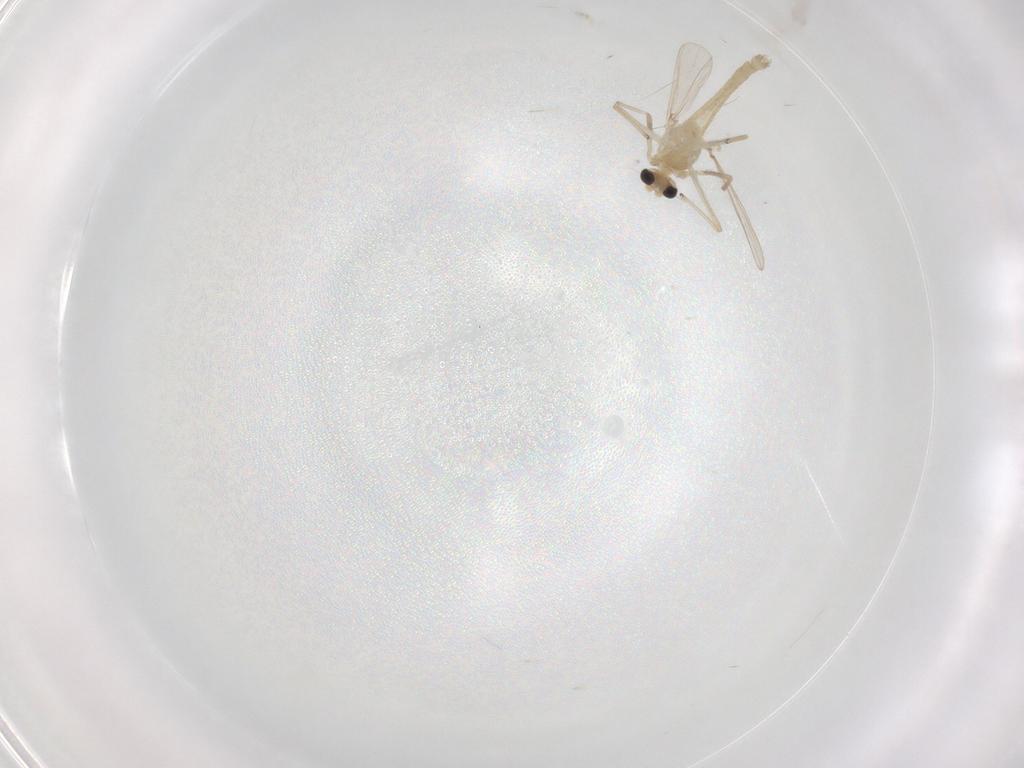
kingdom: Animalia
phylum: Arthropoda
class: Insecta
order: Diptera
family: Chironomidae
